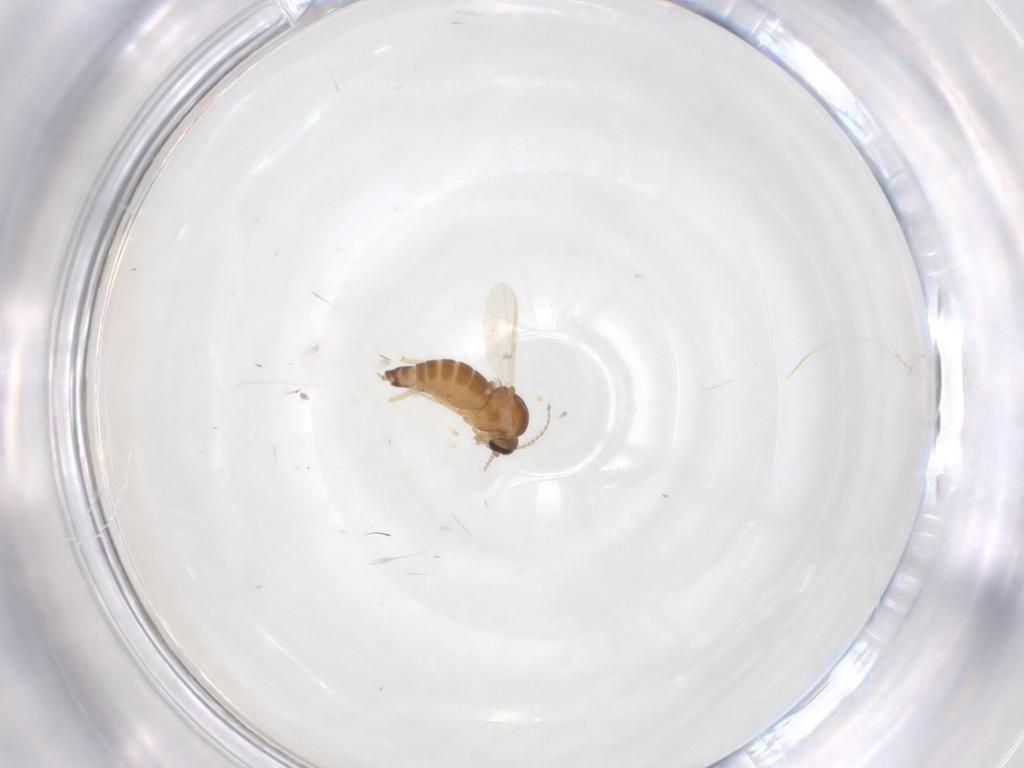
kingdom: Animalia
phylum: Arthropoda
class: Insecta
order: Diptera
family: Ceratopogonidae
